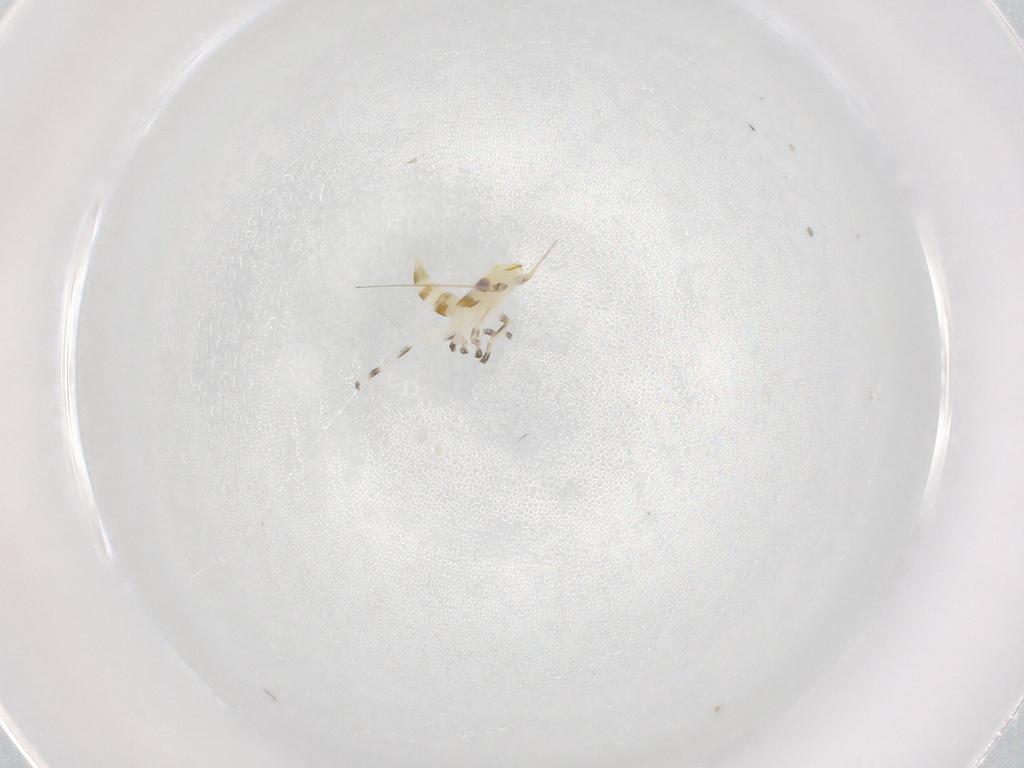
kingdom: Animalia
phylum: Arthropoda
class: Insecta
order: Hemiptera
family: Cicadellidae
